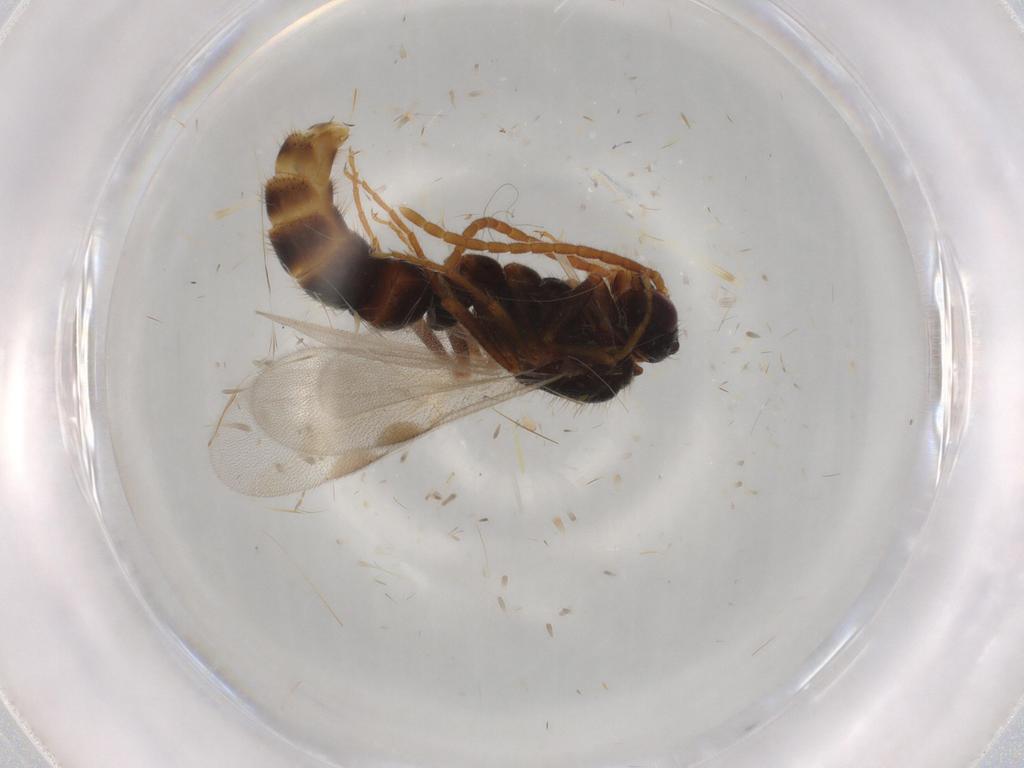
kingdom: Animalia
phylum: Arthropoda
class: Insecta
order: Hymenoptera
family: Formicidae
